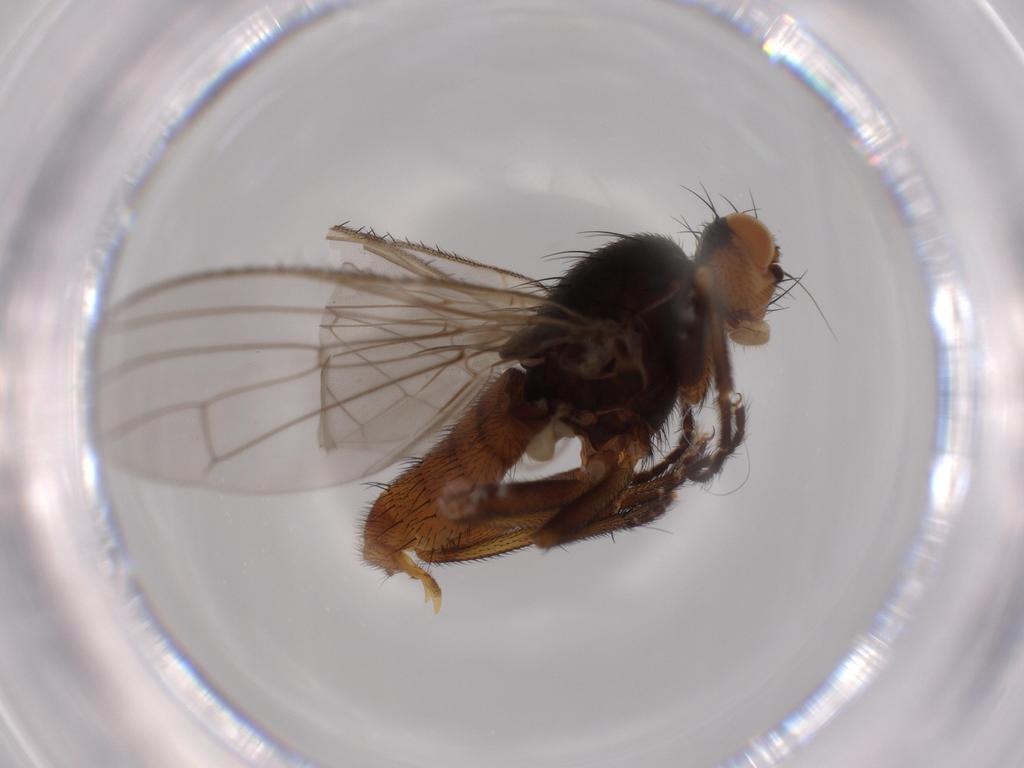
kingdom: Animalia
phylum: Arthropoda
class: Insecta
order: Diptera
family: Heleomyzidae
